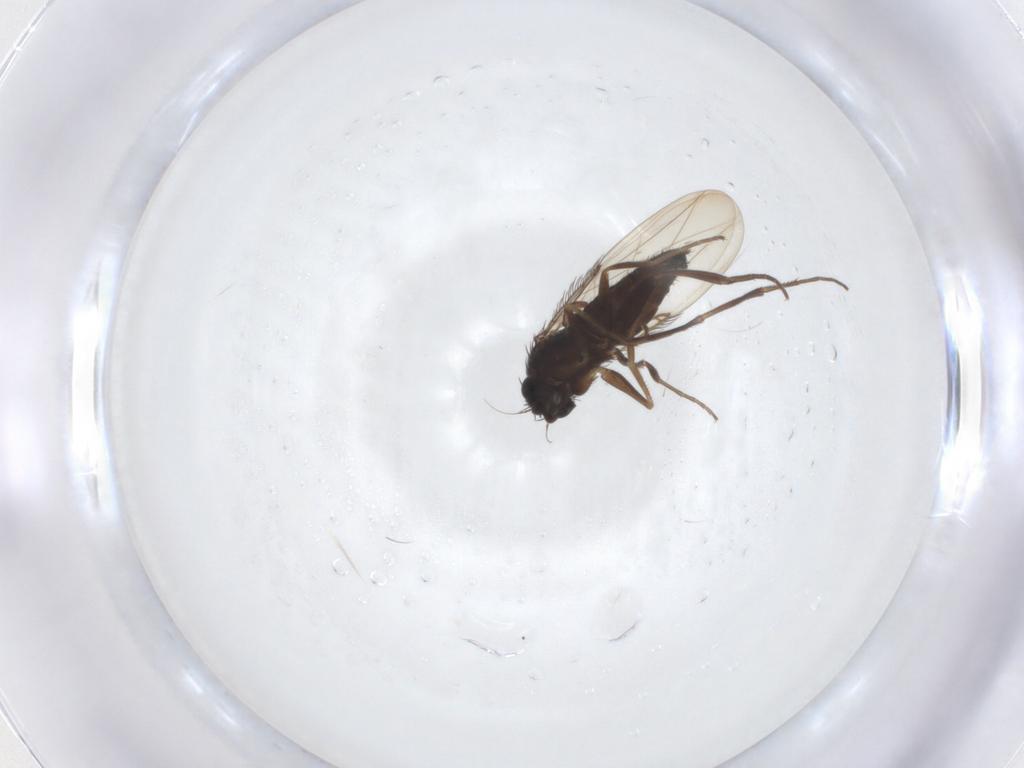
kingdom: Animalia
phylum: Arthropoda
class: Insecta
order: Diptera
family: Phoridae
